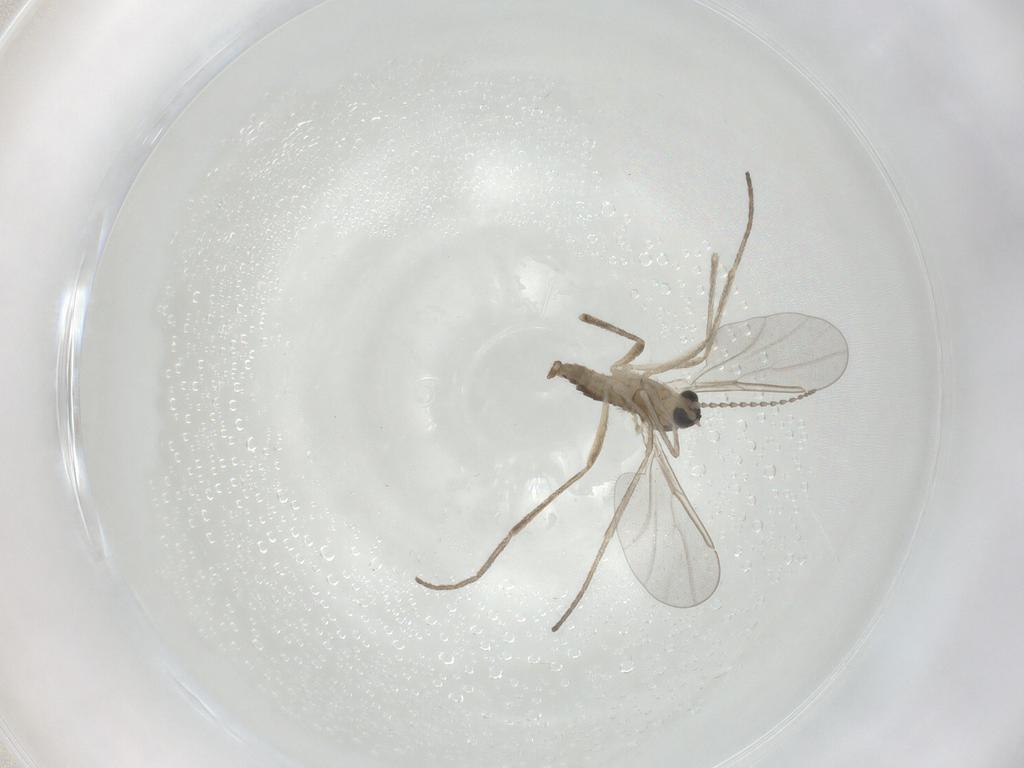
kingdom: Animalia
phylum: Arthropoda
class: Insecta
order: Diptera
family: Cecidomyiidae
